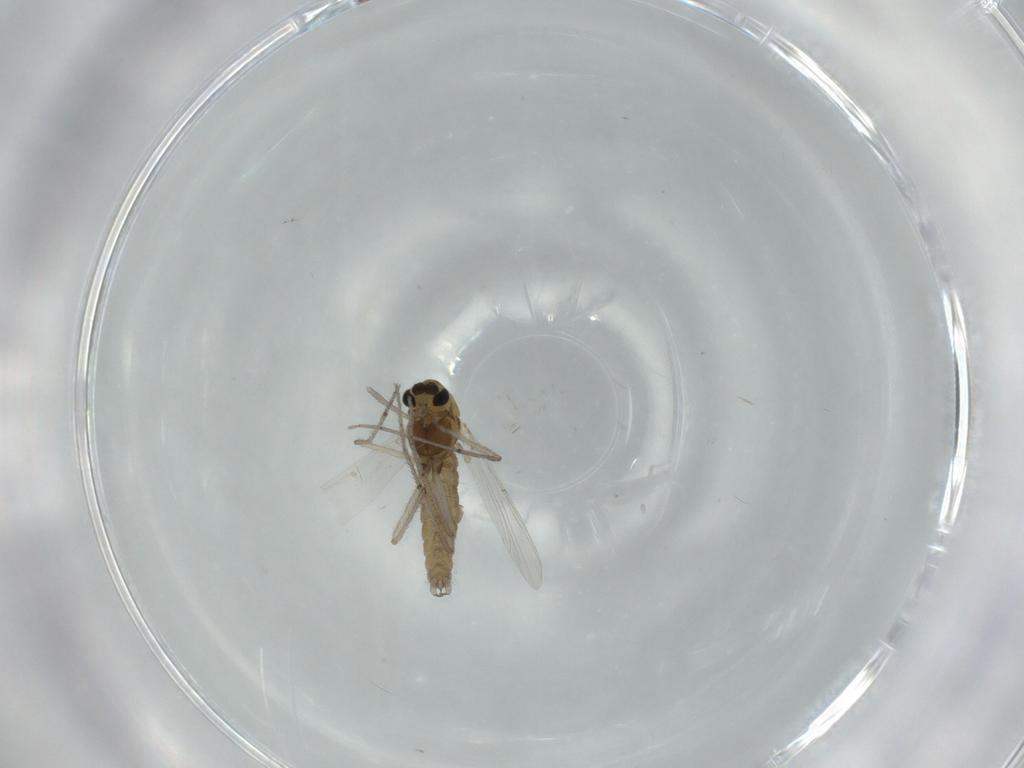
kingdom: Animalia
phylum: Arthropoda
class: Insecta
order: Diptera
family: Chironomidae
